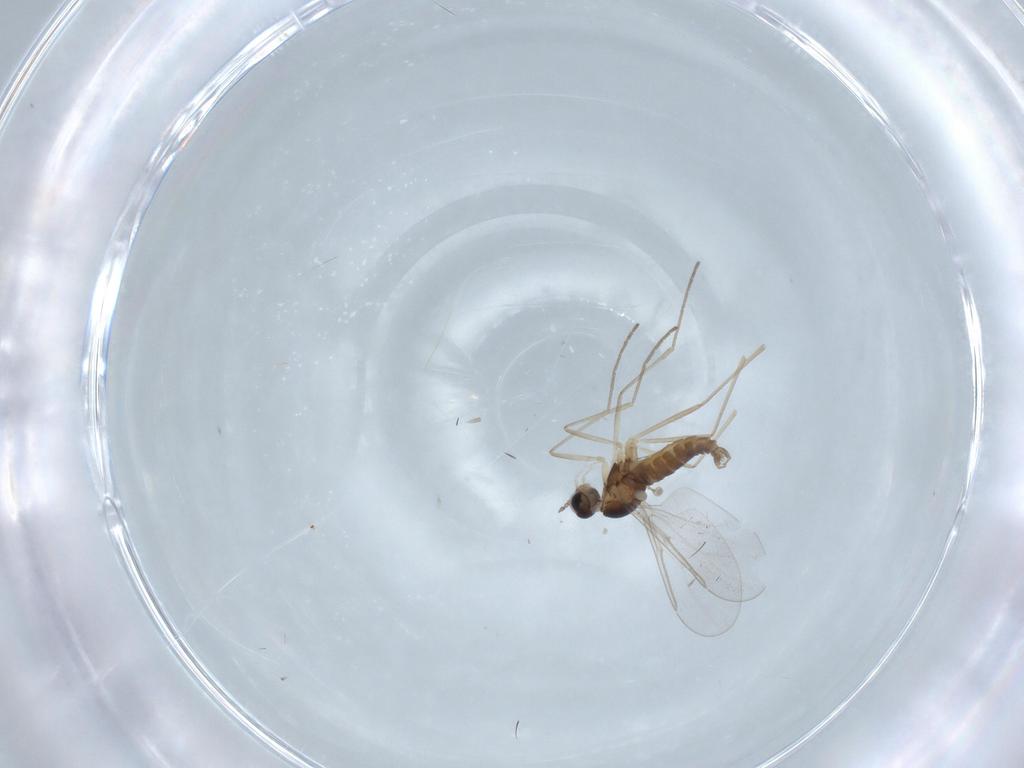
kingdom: Animalia
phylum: Arthropoda
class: Insecta
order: Diptera
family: Cecidomyiidae
